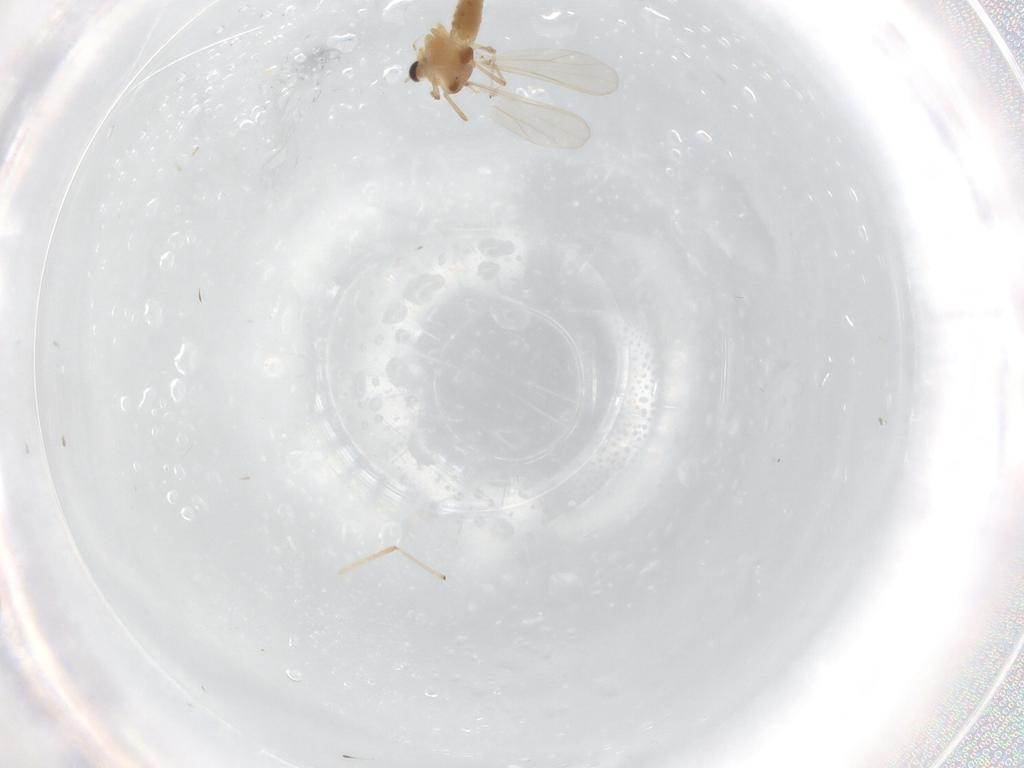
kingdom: Animalia
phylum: Arthropoda
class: Insecta
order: Diptera
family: Chironomidae
